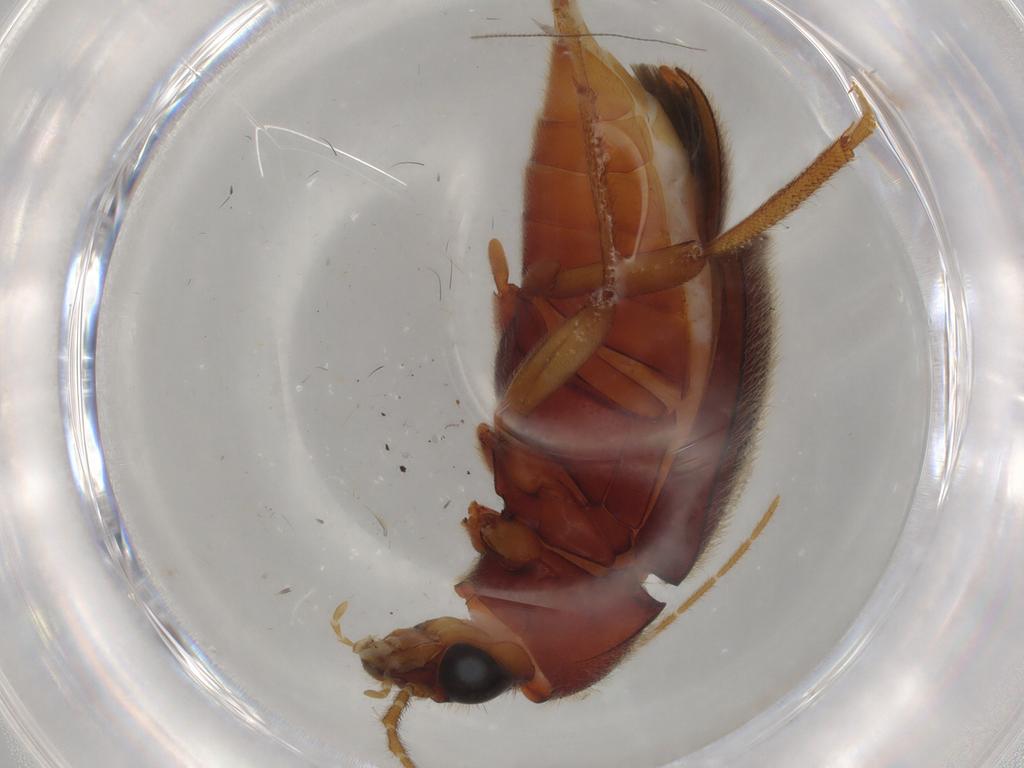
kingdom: Animalia
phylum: Arthropoda
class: Insecta
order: Coleoptera
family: Ptilodactylidae
